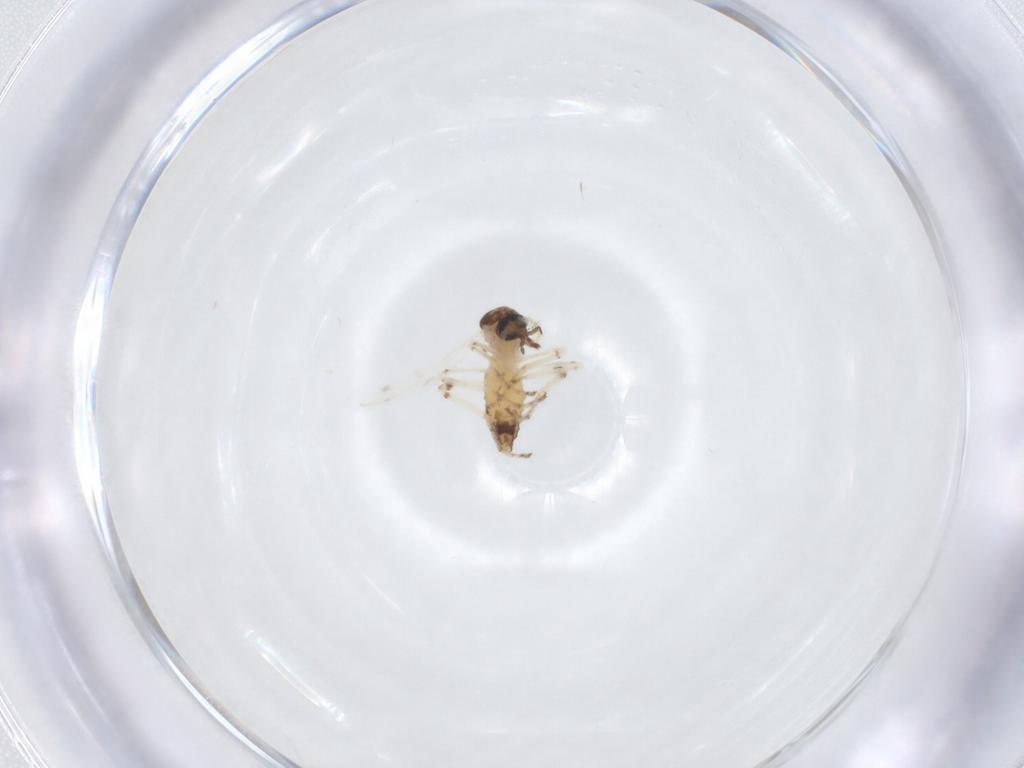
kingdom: Animalia
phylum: Arthropoda
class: Insecta
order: Diptera
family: Ceratopogonidae
